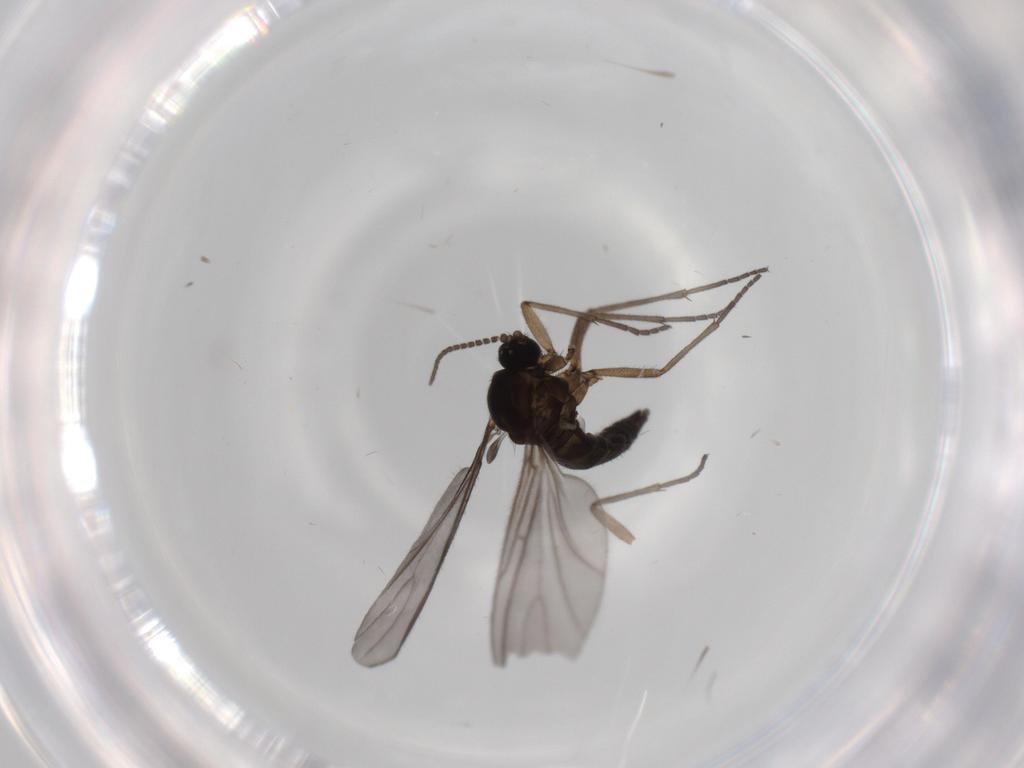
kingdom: Animalia
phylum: Arthropoda
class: Insecta
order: Diptera
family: Sciaridae
